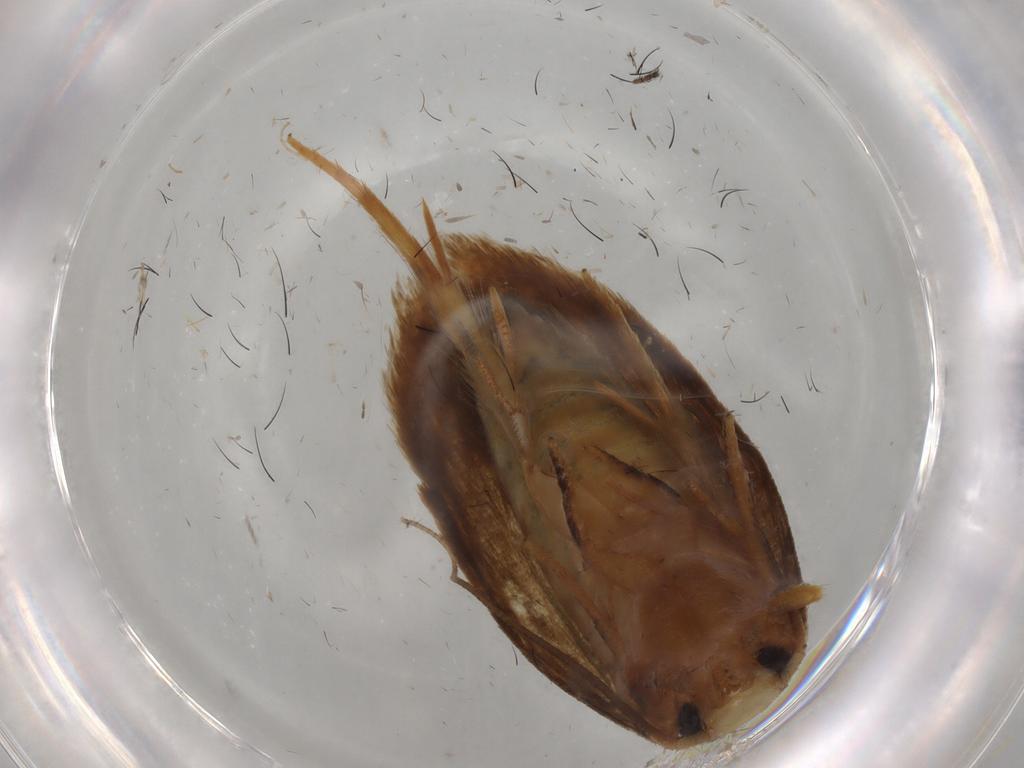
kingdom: Animalia
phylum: Arthropoda
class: Insecta
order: Lepidoptera
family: Tineidae
